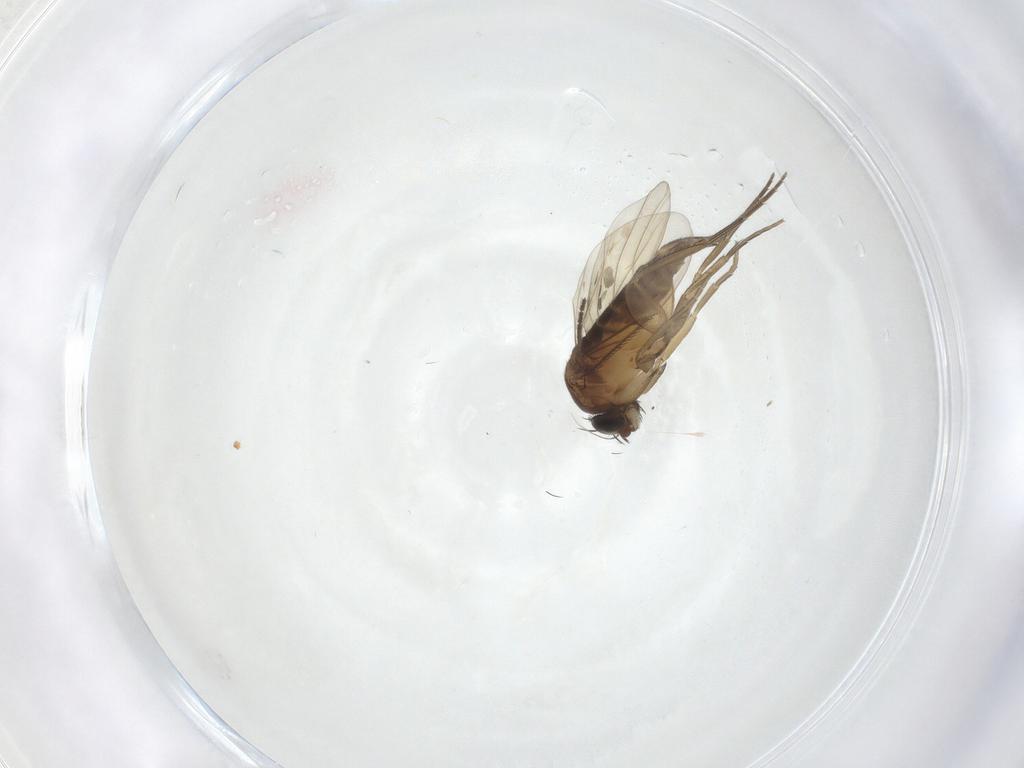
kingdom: Animalia
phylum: Arthropoda
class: Insecta
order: Diptera
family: Phoridae
